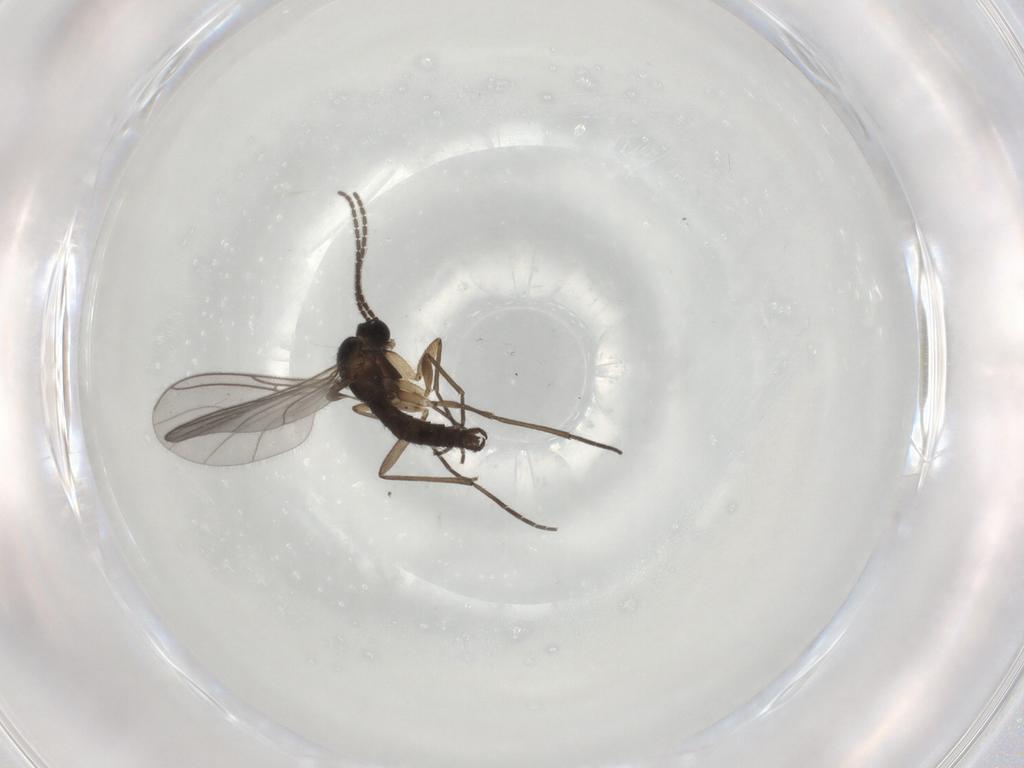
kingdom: Animalia
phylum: Arthropoda
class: Insecta
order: Diptera
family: Sciaridae
